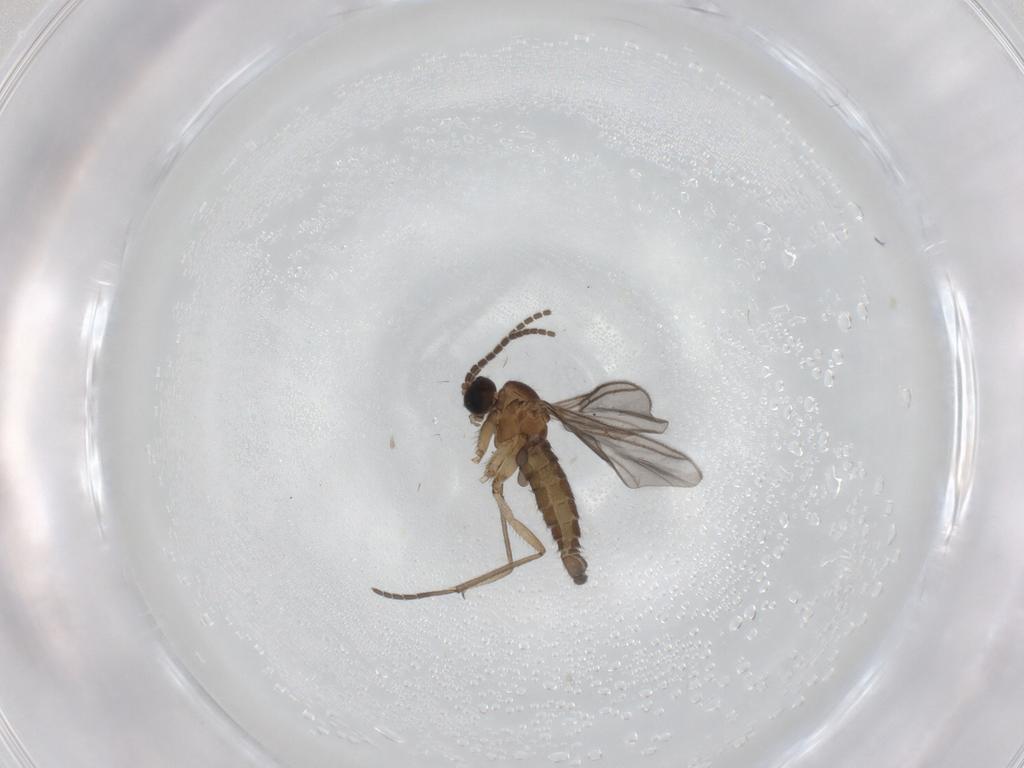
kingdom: Animalia
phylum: Arthropoda
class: Insecta
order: Diptera
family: Sciaridae
